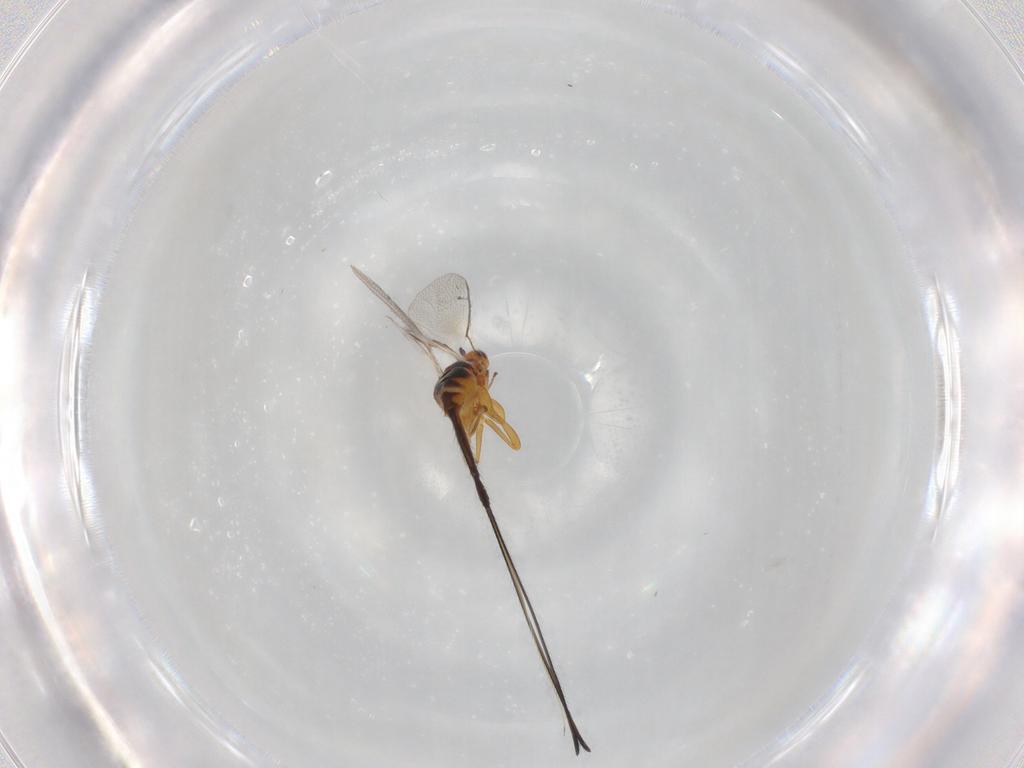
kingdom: Animalia
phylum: Arthropoda
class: Insecta
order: Hymenoptera
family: Pteromalidae
